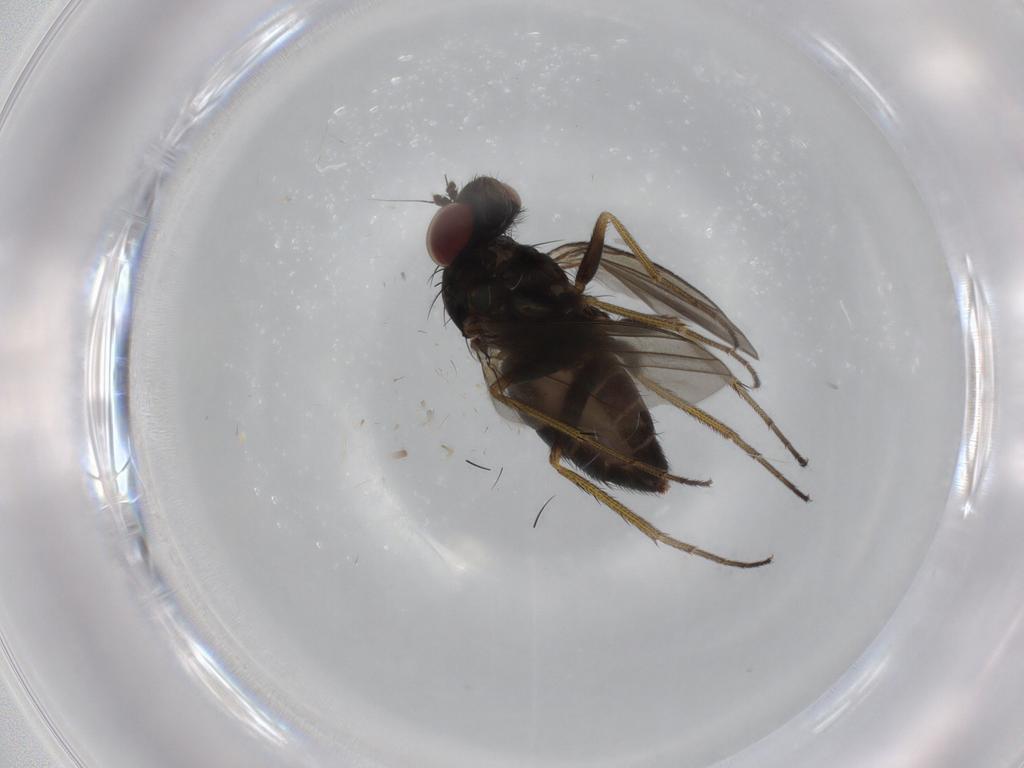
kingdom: Animalia
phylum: Arthropoda
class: Insecta
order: Diptera
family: Dolichopodidae
